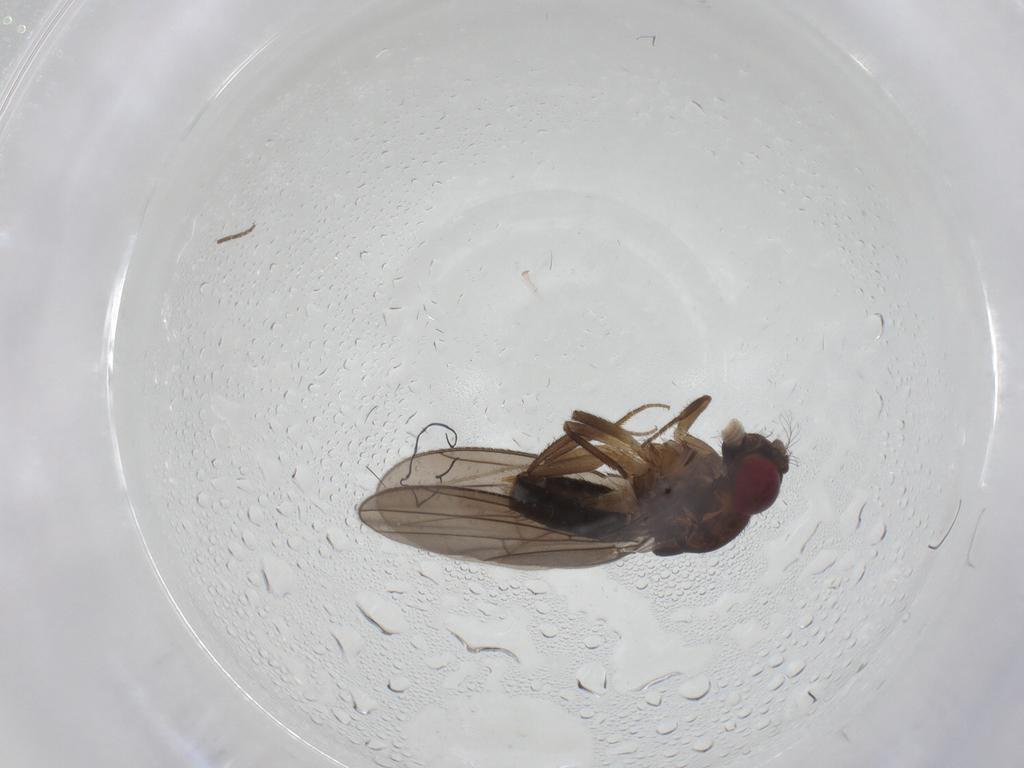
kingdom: Animalia
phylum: Arthropoda
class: Insecta
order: Diptera
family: Drosophilidae
